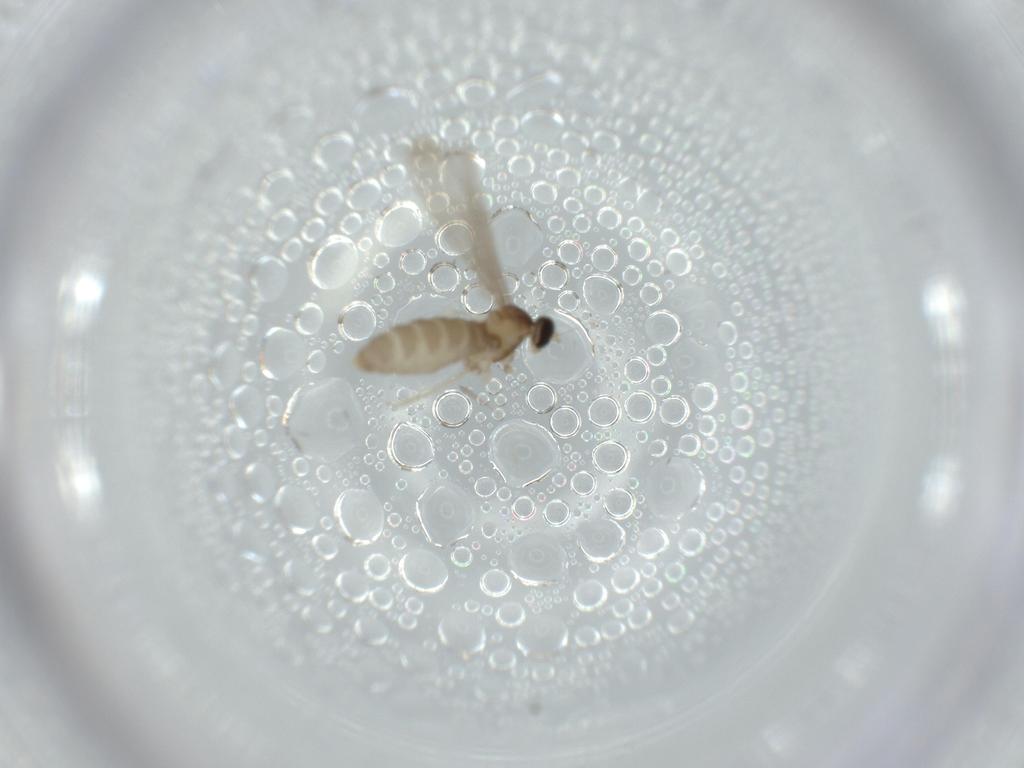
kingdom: Animalia
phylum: Arthropoda
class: Insecta
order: Diptera
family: Cecidomyiidae
